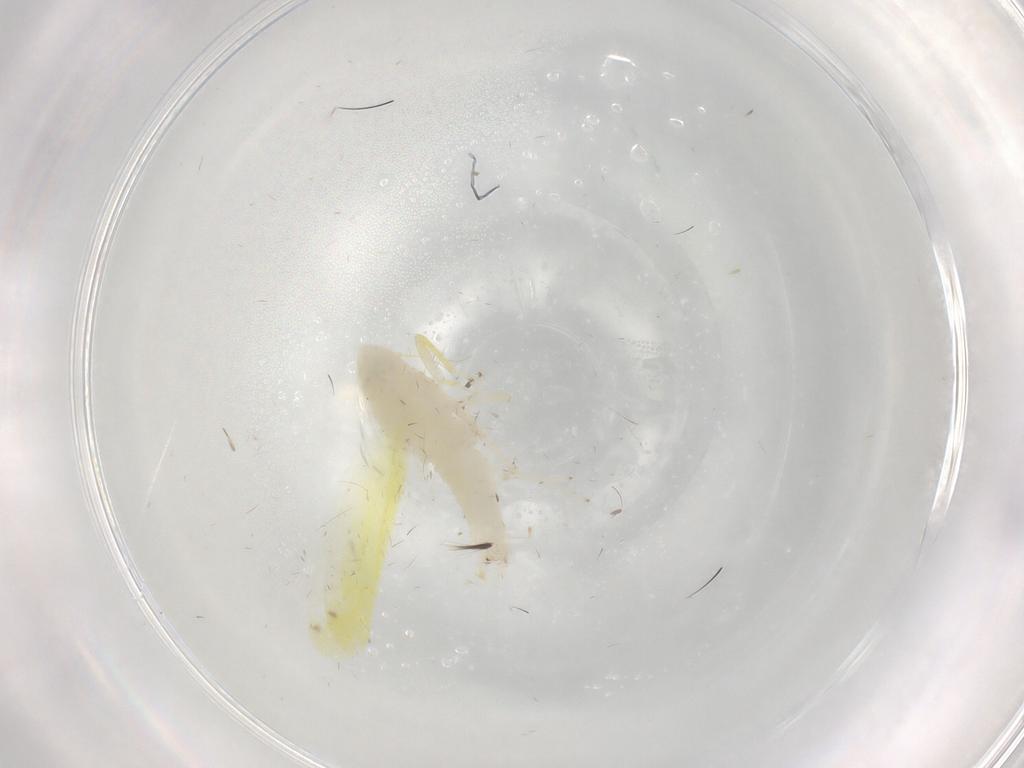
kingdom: Animalia
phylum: Arthropoda
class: Insecta
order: Hemiptera
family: Cicadellidae
